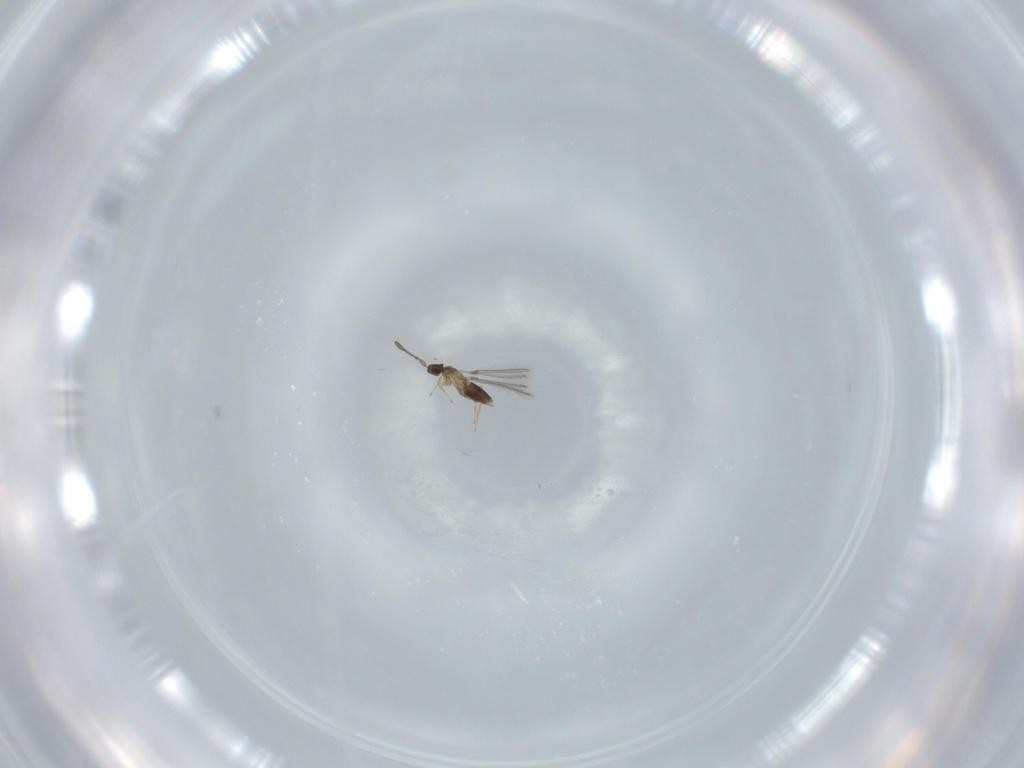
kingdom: Animalia
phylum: Arthropoda
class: Insecta
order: Hymenoptera
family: Mymaridae
